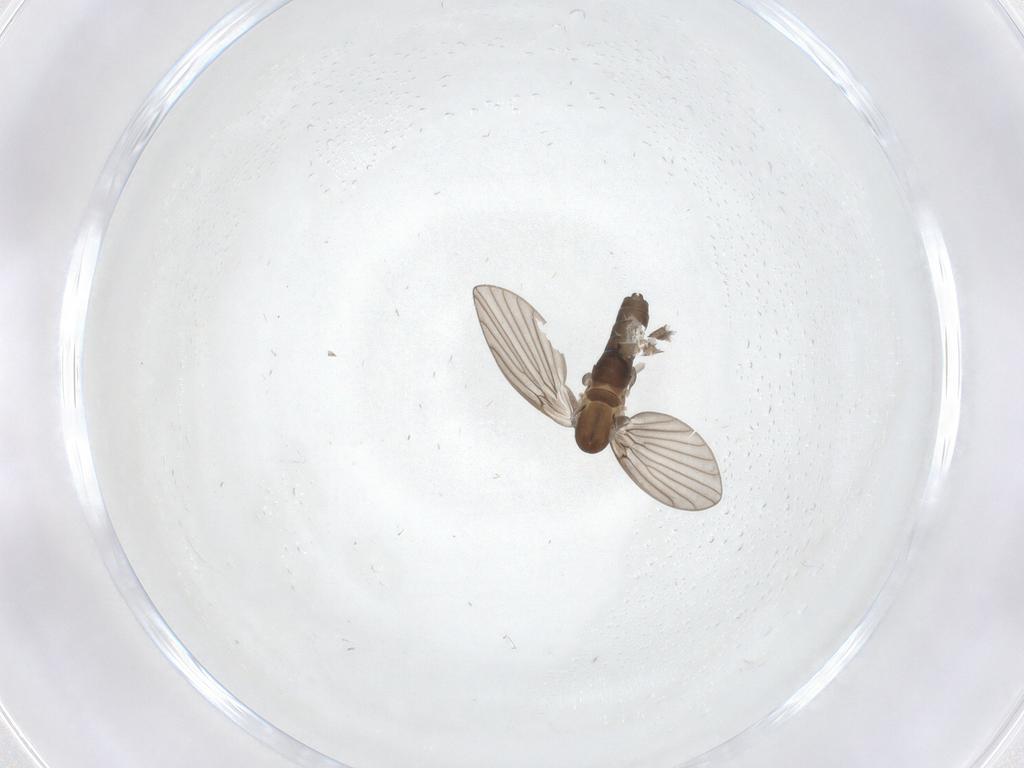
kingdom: Animalia
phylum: Arthropoda
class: Insecta
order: Diptera
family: Psychodidae
